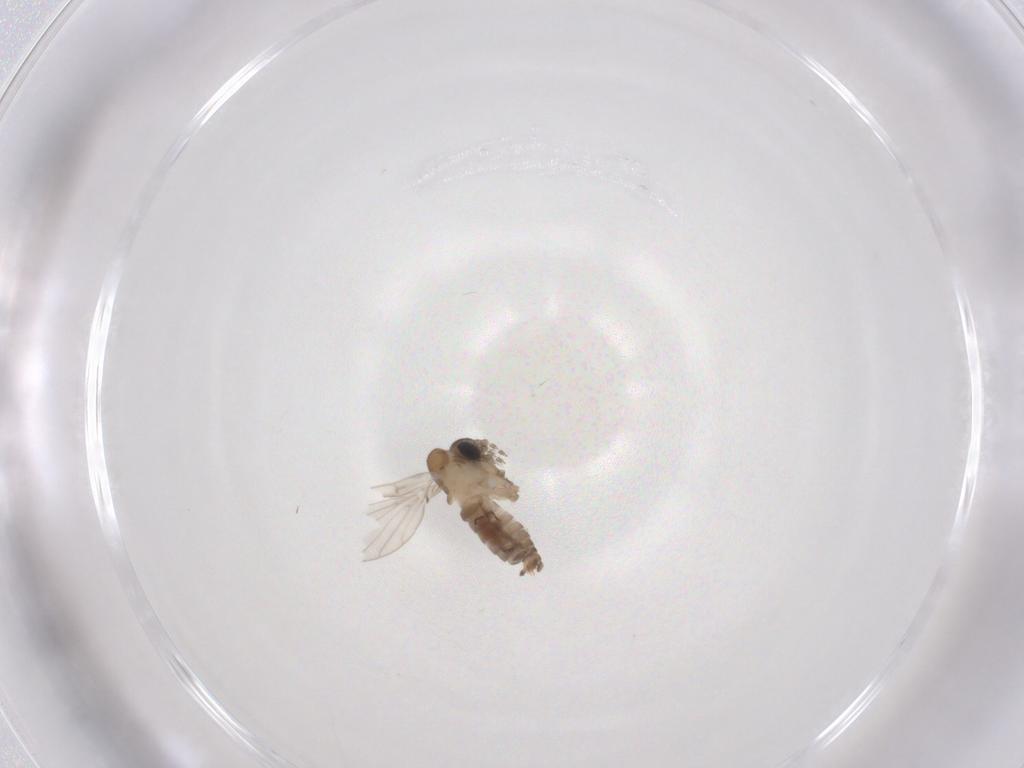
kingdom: Animalia
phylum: Arthropoda
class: Insecta
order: Diptera
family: Psychodidae
